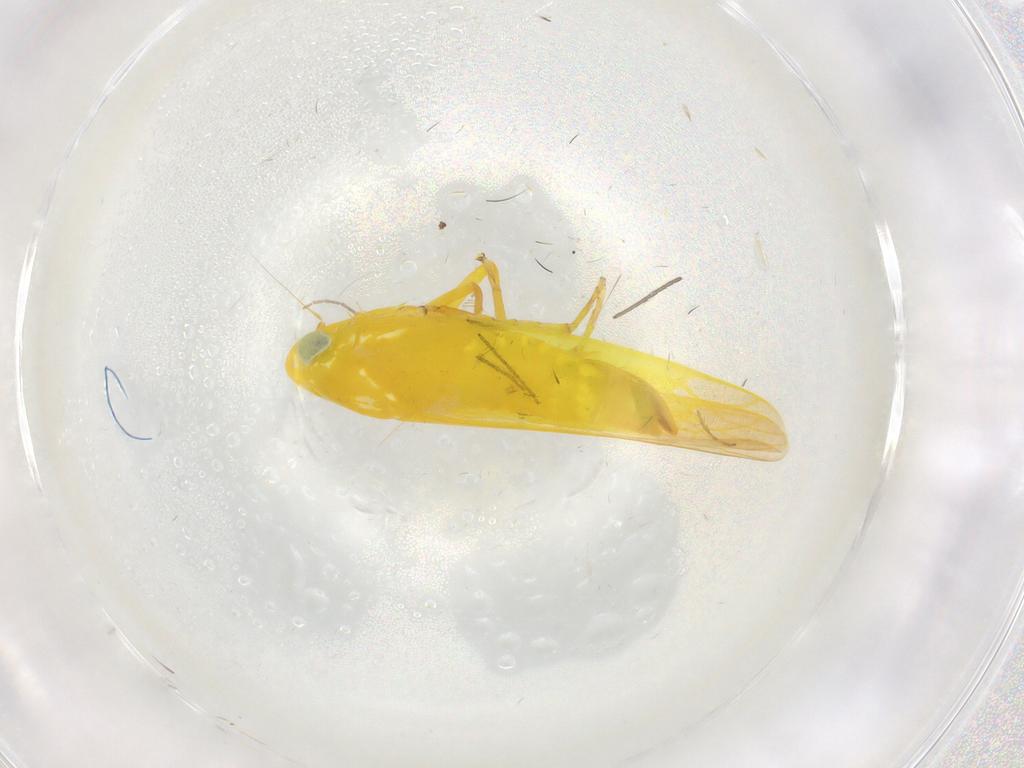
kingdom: Animalia
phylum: Arthropoda
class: Insecta
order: Hemiptera
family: Cicadellidae
